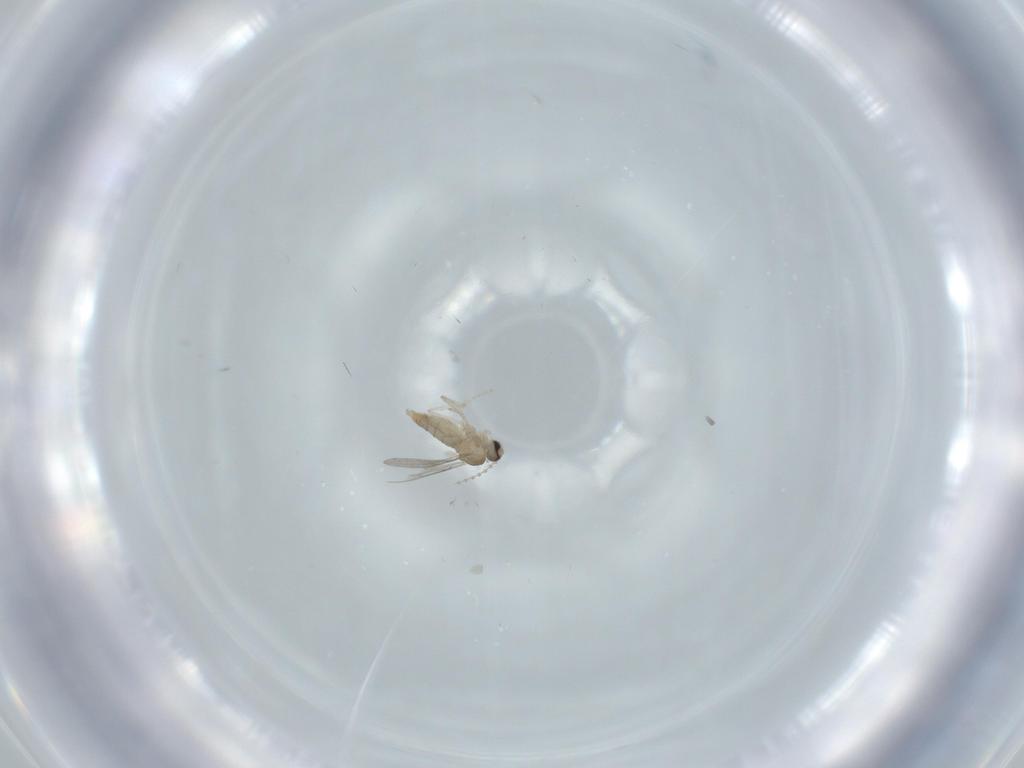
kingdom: Animalia
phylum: Arthropoda
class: Insecta
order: Diptera
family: Cecidomyiidae
